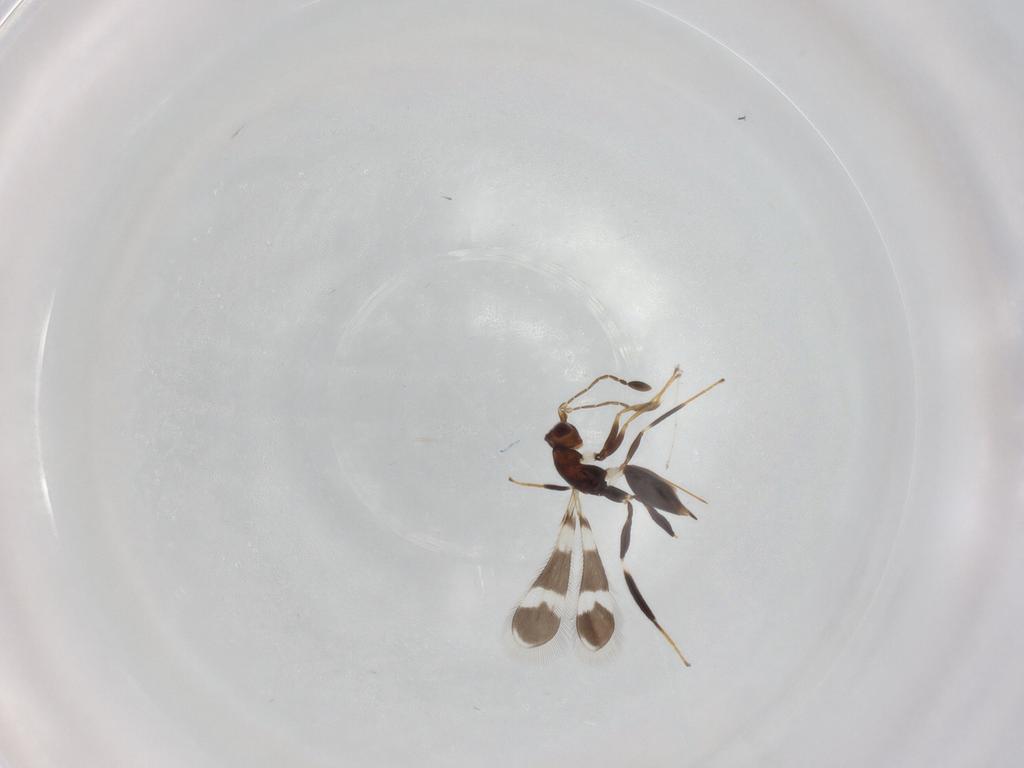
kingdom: Animalia
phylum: Arthropoda
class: Insecta
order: Hymenoptera
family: Mymaridae
